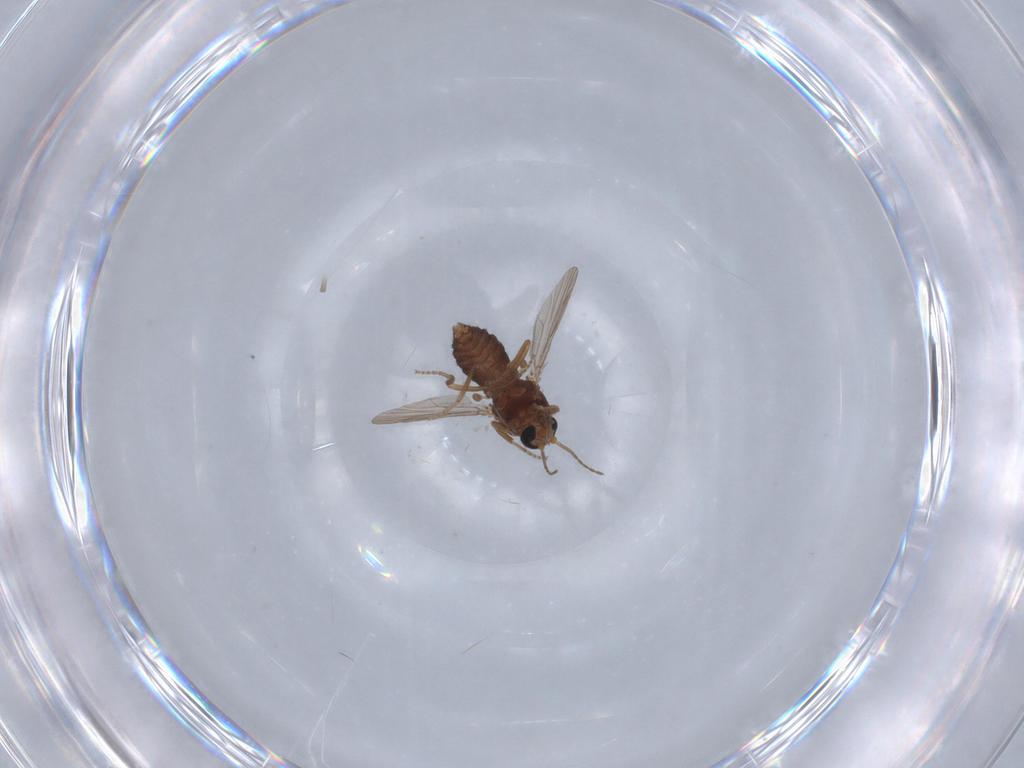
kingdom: Animalia
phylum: Arthropoda
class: Insecta
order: Diptera
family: Ceratopogonidae
